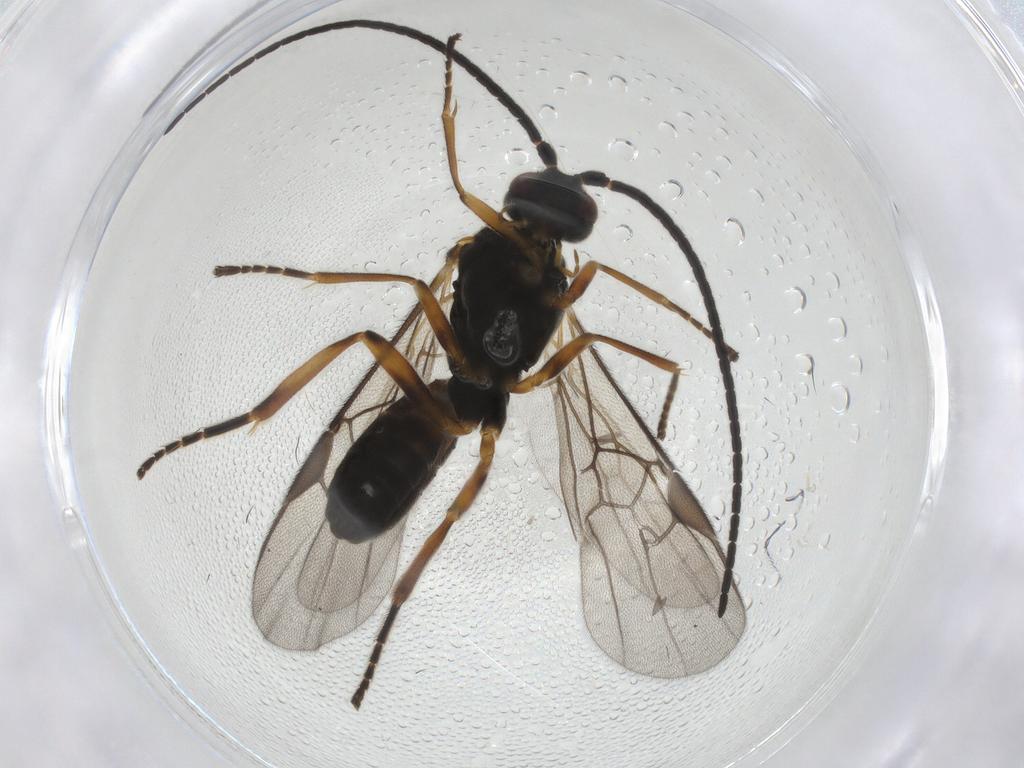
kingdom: Animalia
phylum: Arthropoda
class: Insecta
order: Hymenoptera
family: Braconidae
